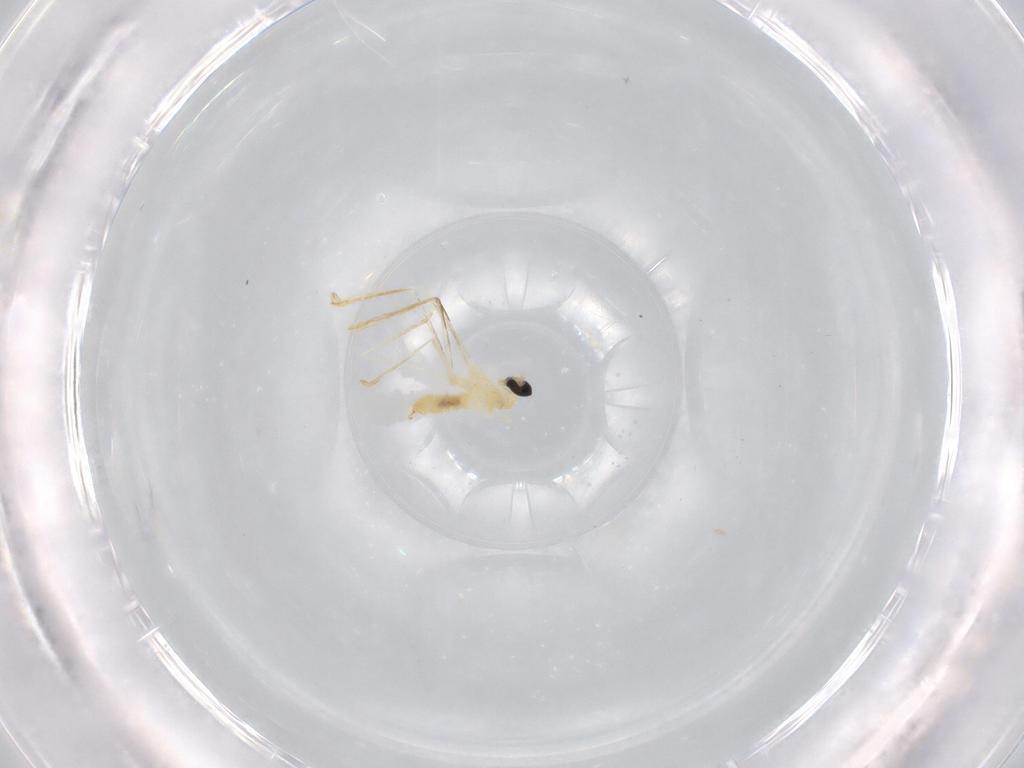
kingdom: Animalia
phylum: Arthropoda
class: Insecta
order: Diptera
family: Cecidomyiidae
